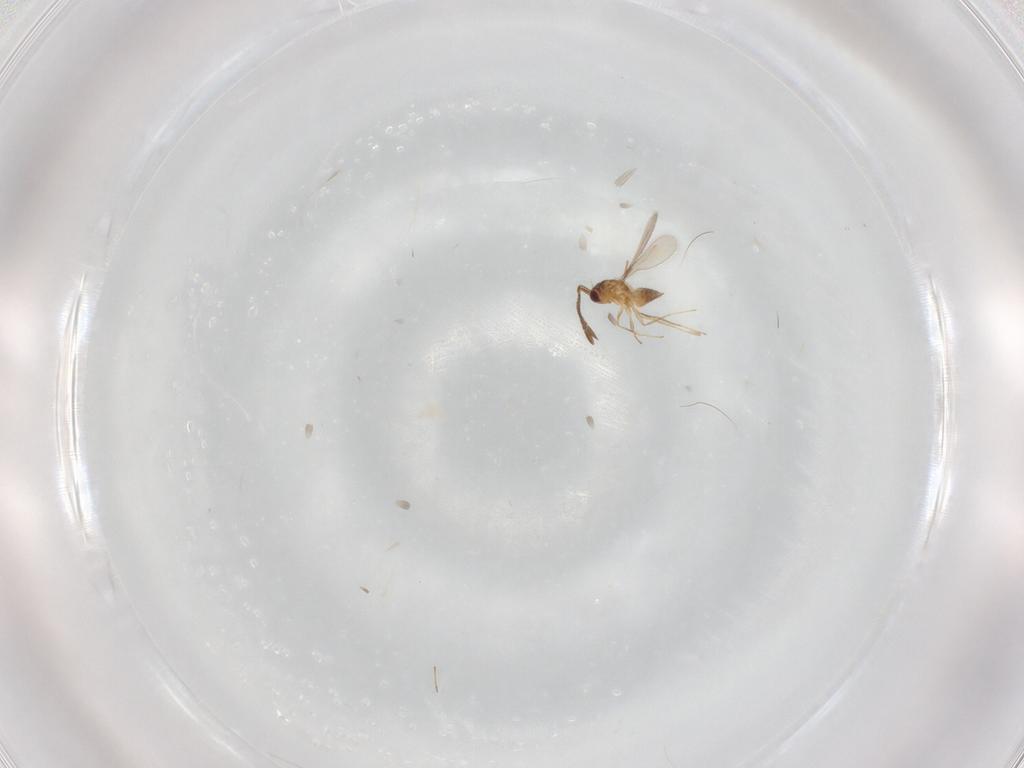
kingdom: Animalia
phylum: Arthropoda
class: Insecta
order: Hymenoptera
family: Mymaridae
